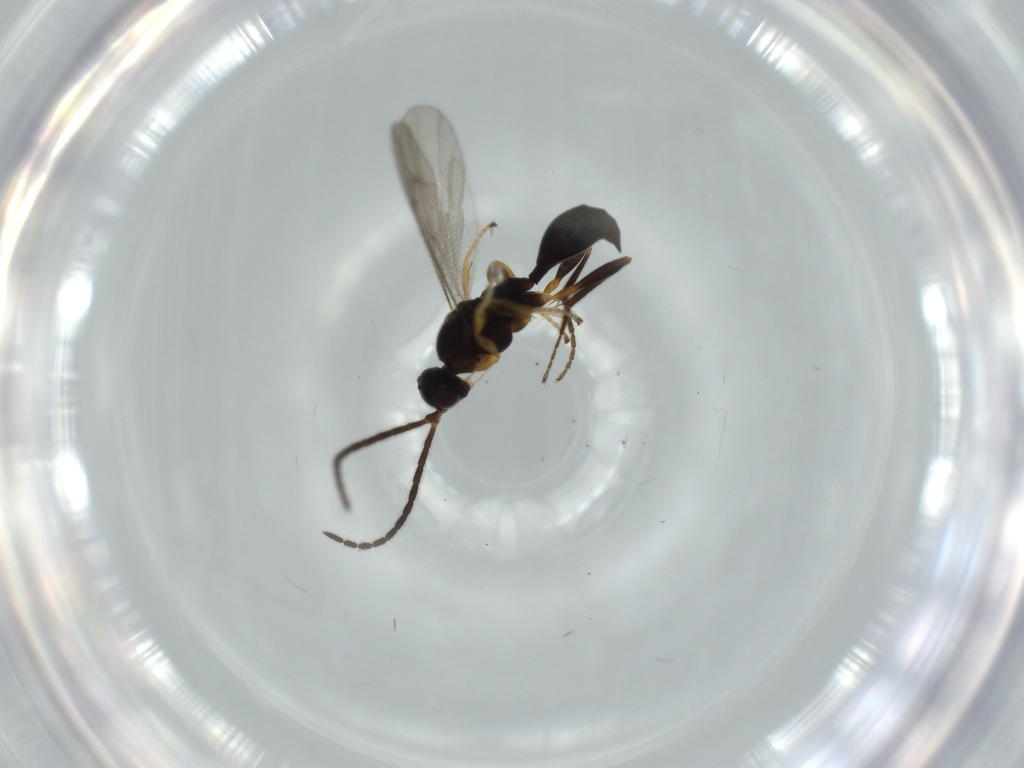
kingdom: Animalia
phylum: Arthropoda
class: Insecta
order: Hymenoptera
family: Proctotrupidae
